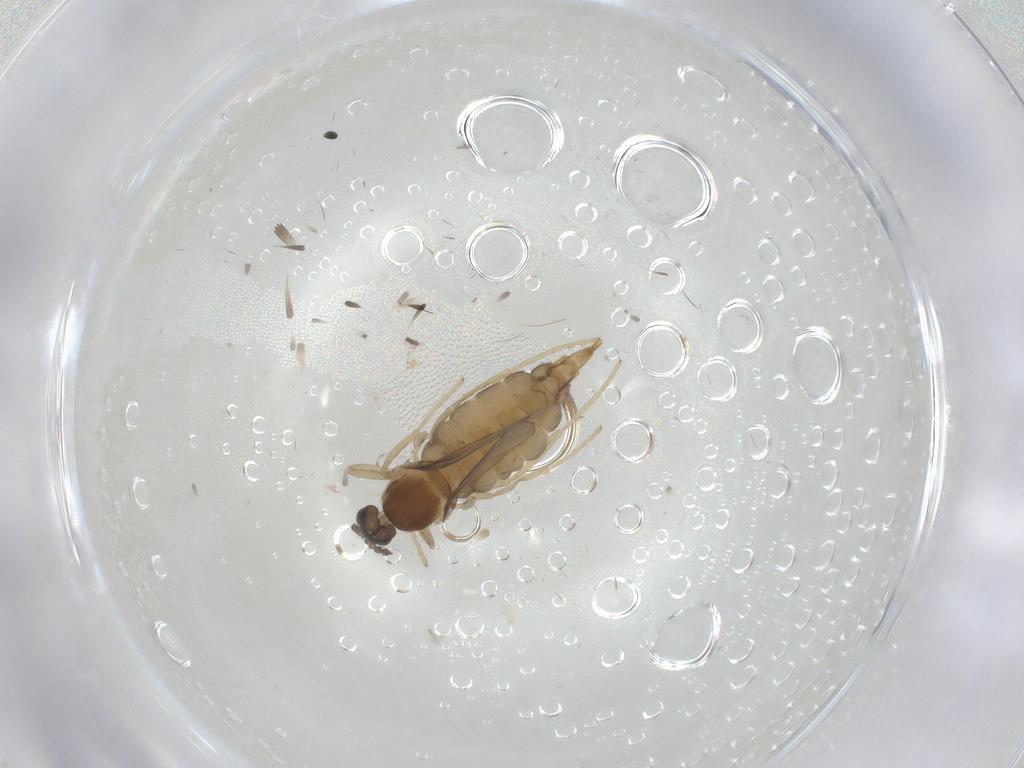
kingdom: Animalia
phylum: Arthropoda
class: Insecta
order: Diptera
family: Cecidomyiidae
